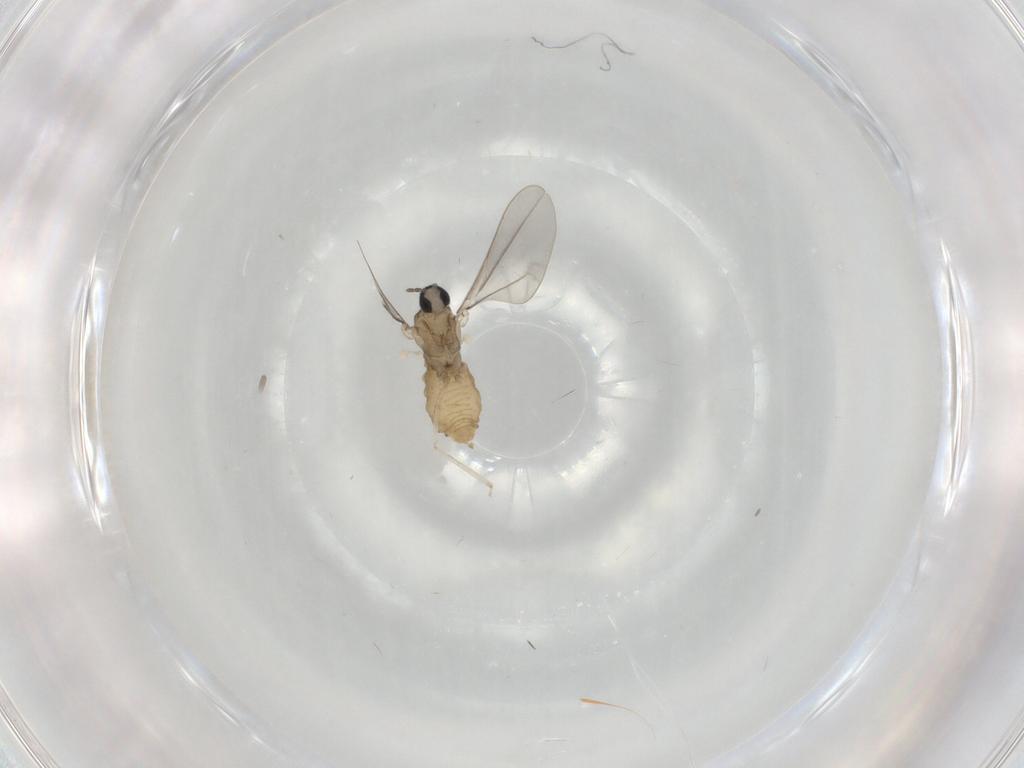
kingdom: Animalia
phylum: Arthropoda
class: Insecta
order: Diptera
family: Cecidomyiidae
